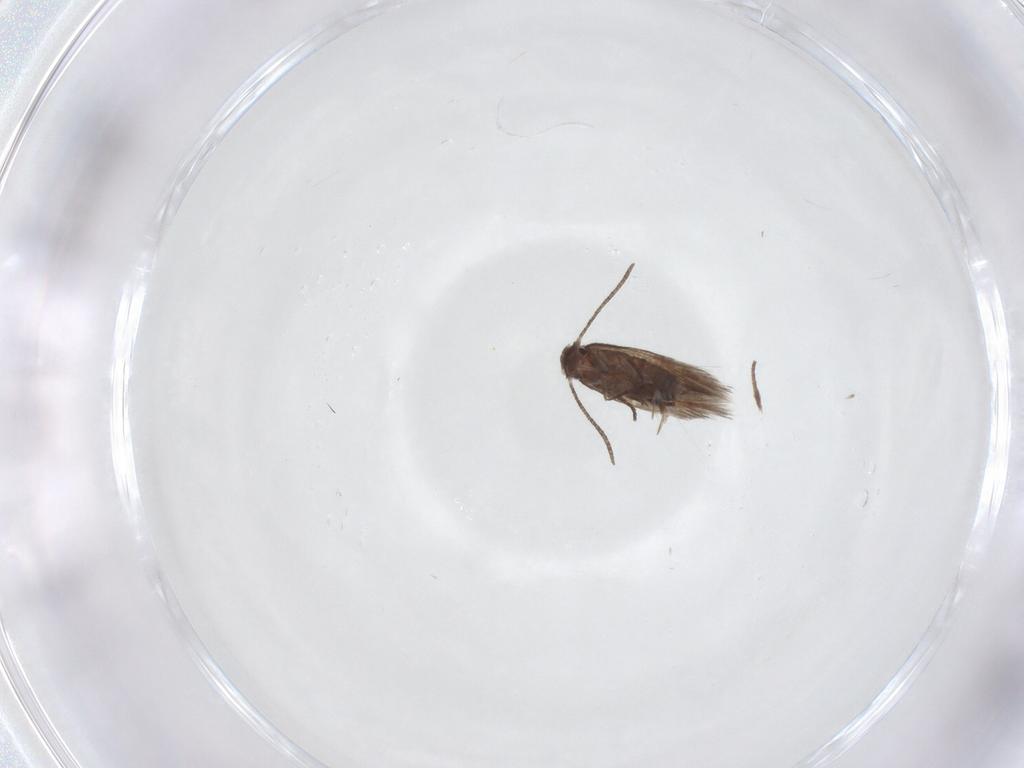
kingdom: Animalia
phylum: Arthropoda
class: Insecta
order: Lepidoptera
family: Lyonetiidae
